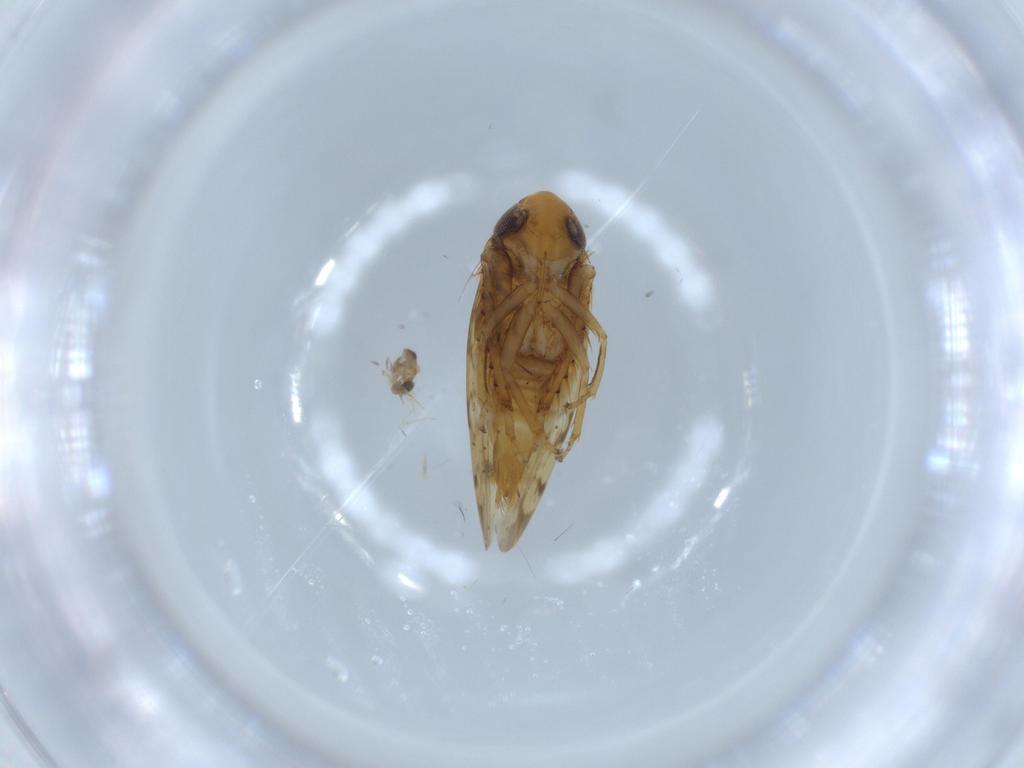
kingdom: Animalia
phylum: Arthropoda
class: Insecta
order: Hemiptera
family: Cicadellidae
